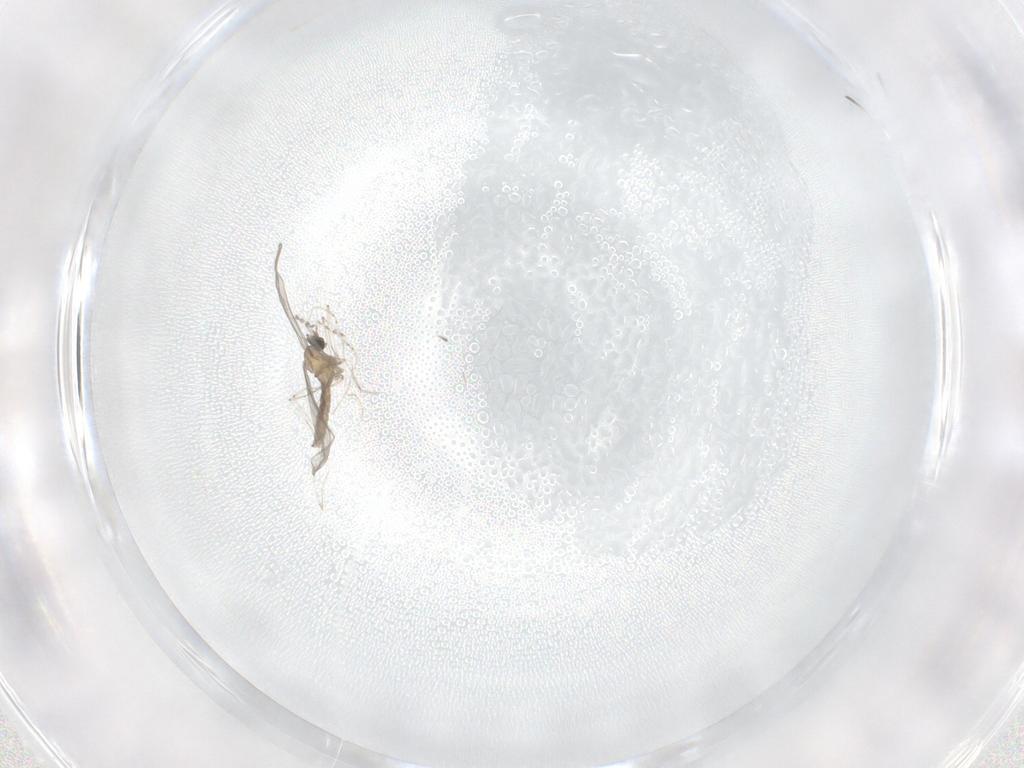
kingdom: Animalia
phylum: Arthropoda
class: Insecta
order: Diptera
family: Cecidomyiidae
